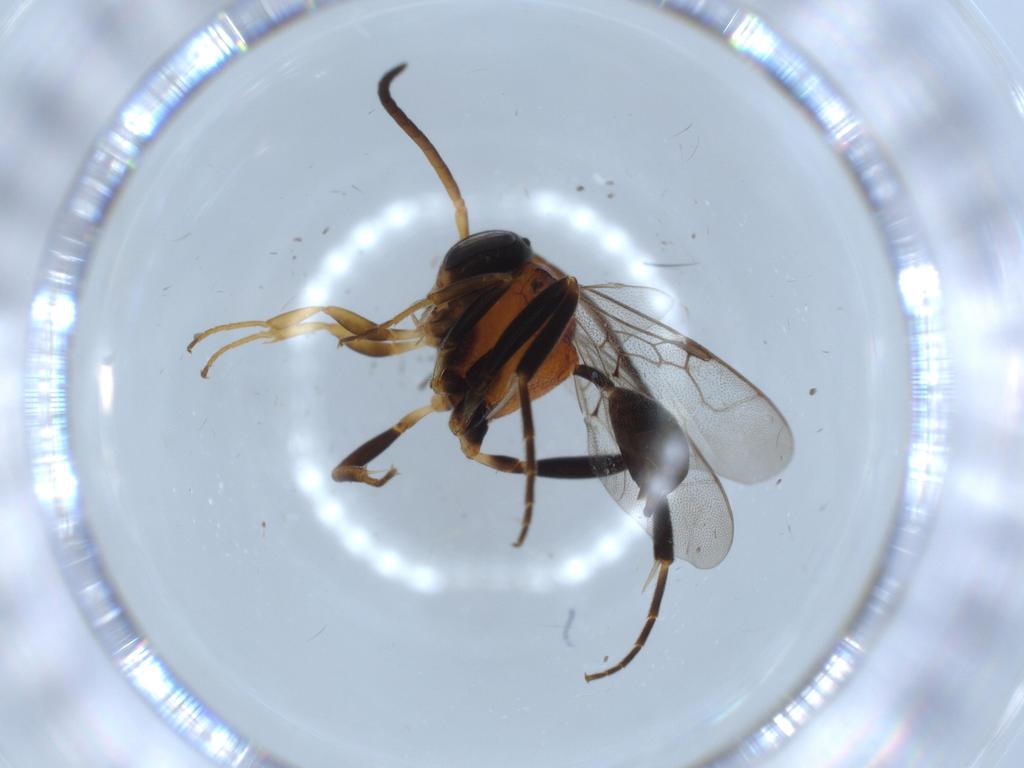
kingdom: Animalia
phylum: Arthropoda
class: Insecta
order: Hymenoptera
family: Evaniidae
